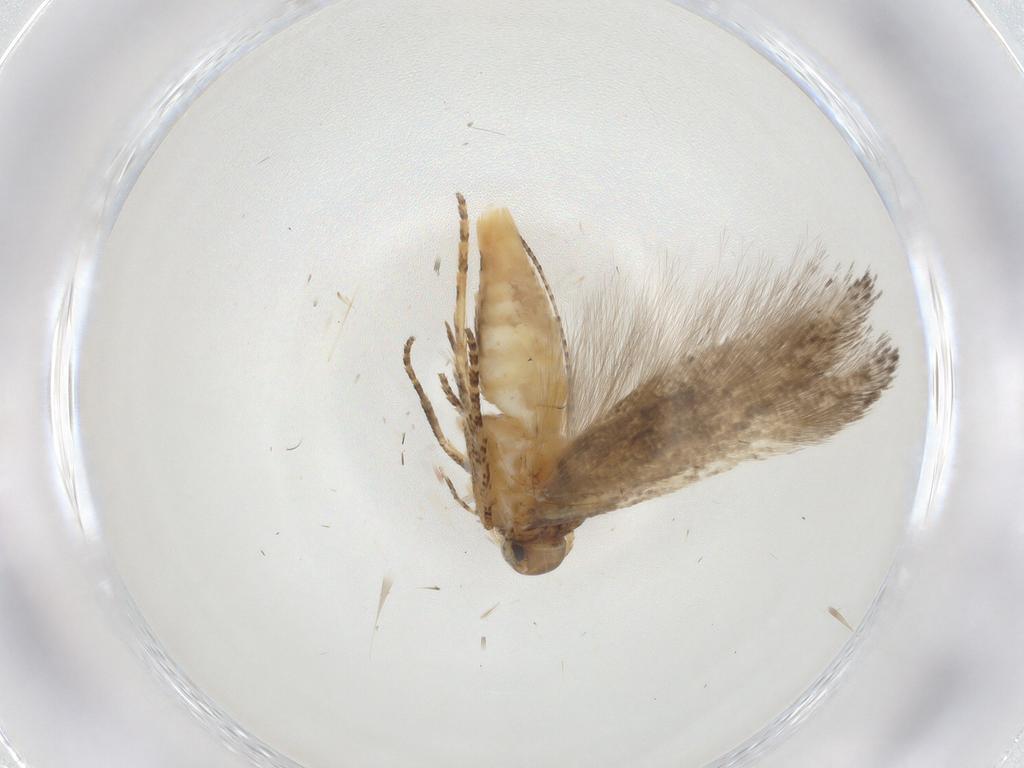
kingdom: Animalia
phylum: Arthropoda
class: Insecta
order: Lepidoptera
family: Gelechiidae
